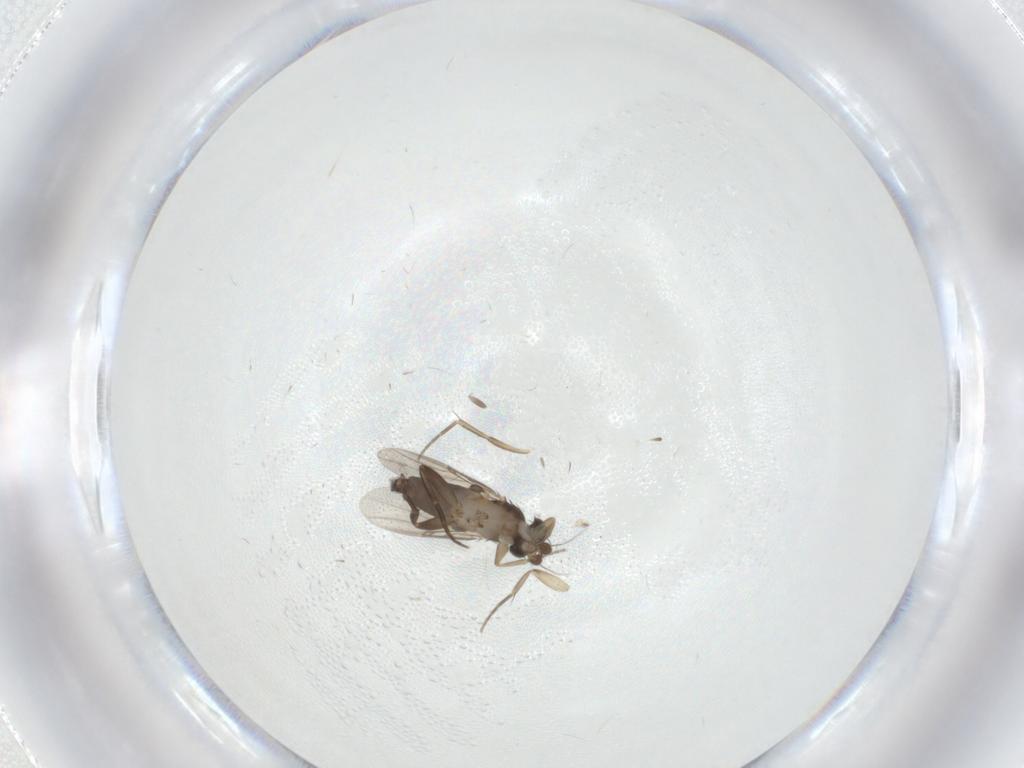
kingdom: Animalia
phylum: Arthropoda
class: Insecta
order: Diptera
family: Phoridae
